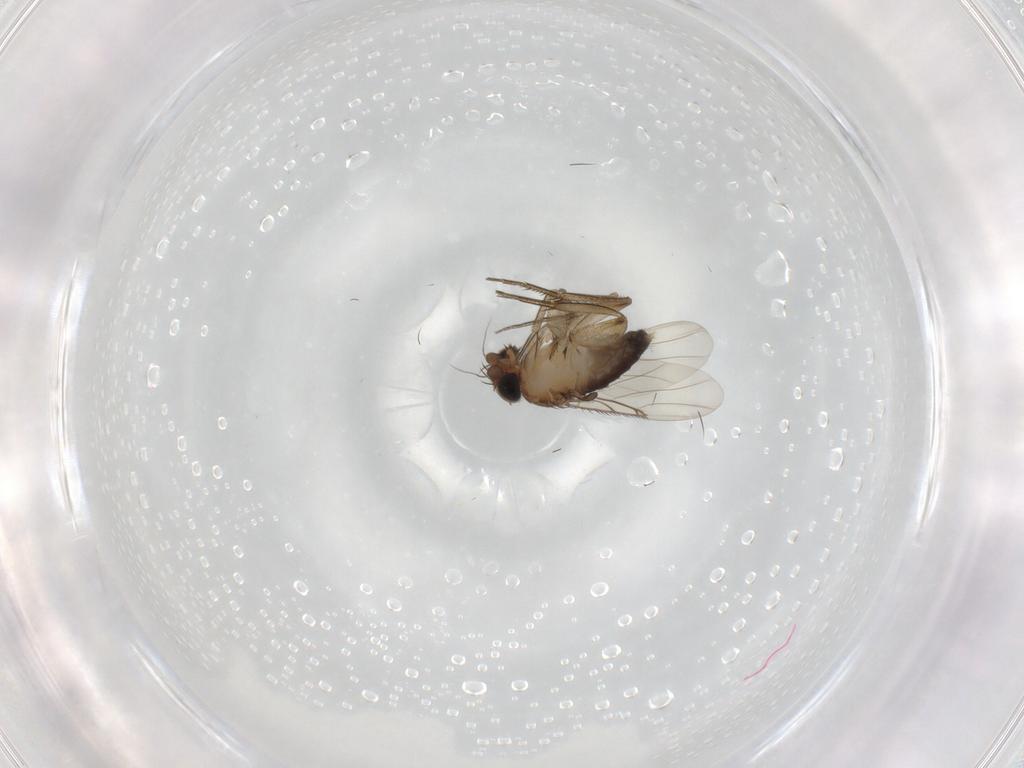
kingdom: Animalia
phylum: Arthropoda
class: Insecta
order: Diptera
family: Phoridae
